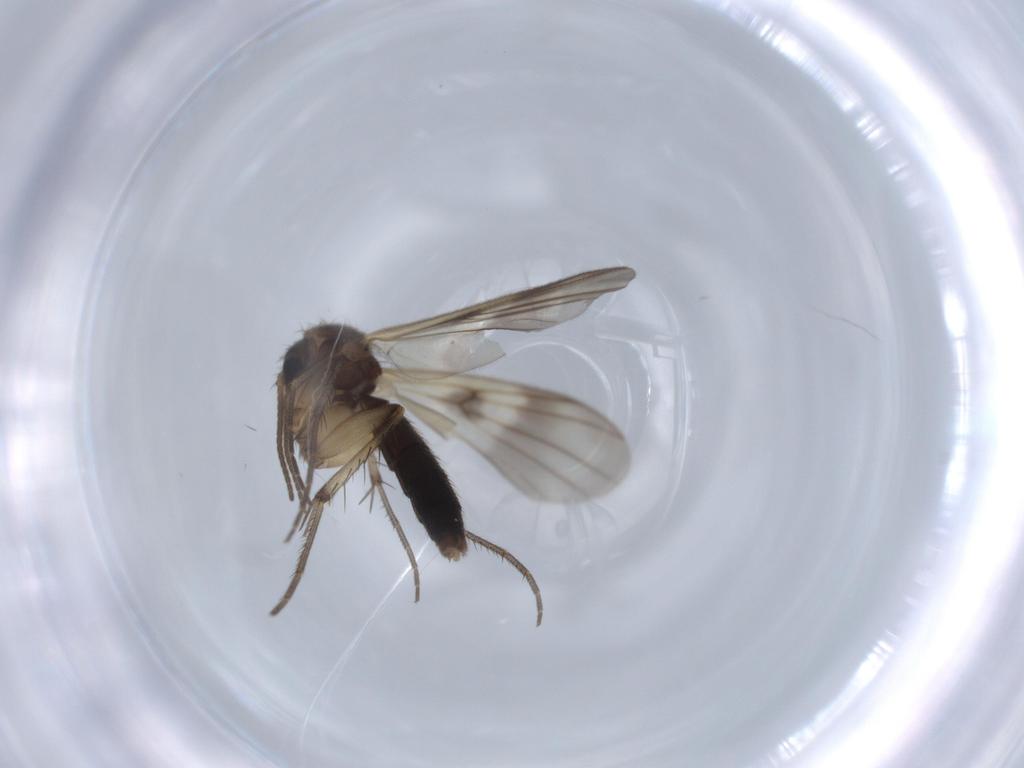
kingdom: Animalia
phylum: Arthropoda
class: Insecta
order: Diptera
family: Chironomidae
